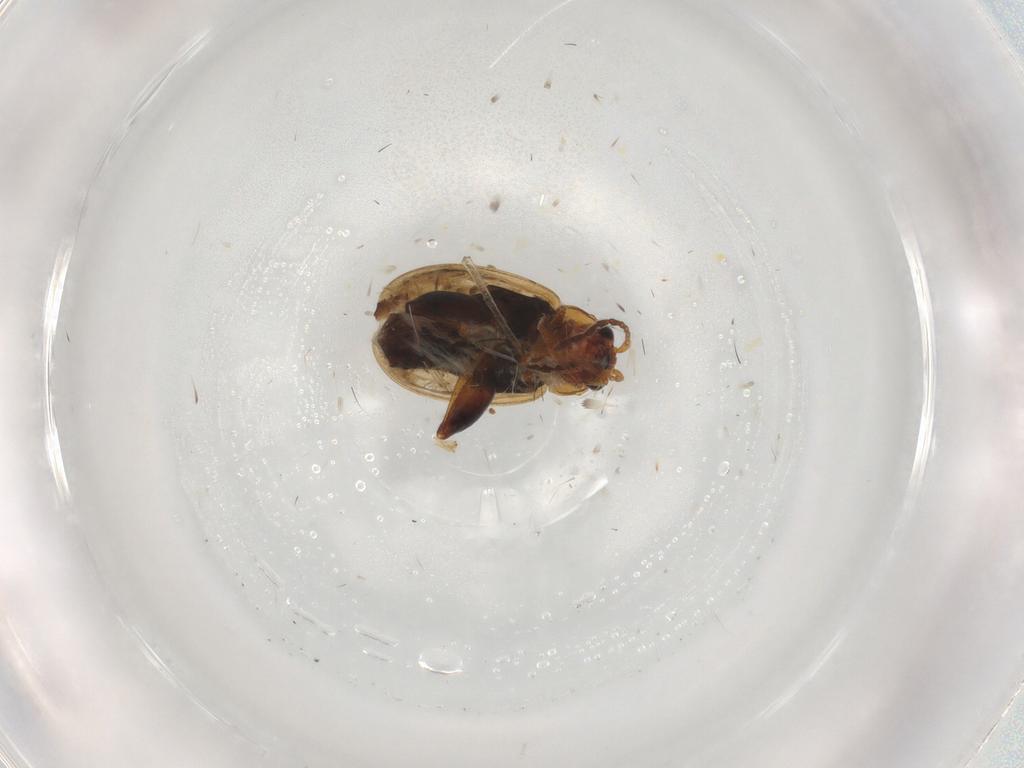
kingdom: Animalia
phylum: Arthropoda
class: Insecta
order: Coleoptera
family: Chrysomelidae
